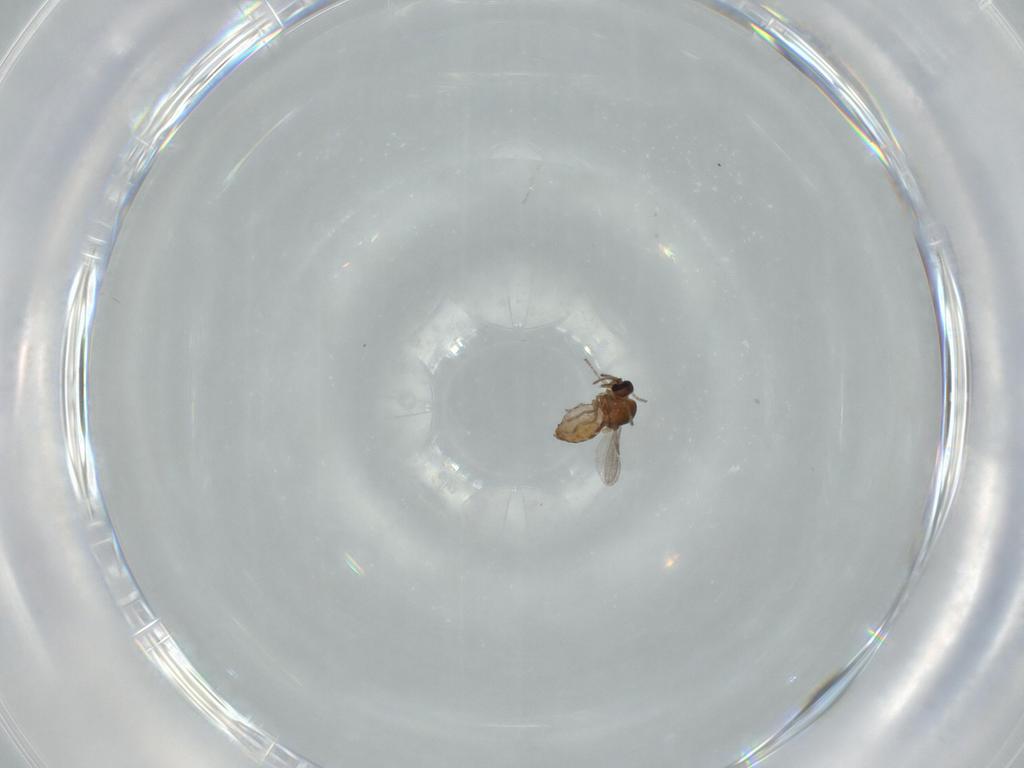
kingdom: Animalia
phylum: Arthropoda
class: Insecta
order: Diptera
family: Ceratopogonidae
